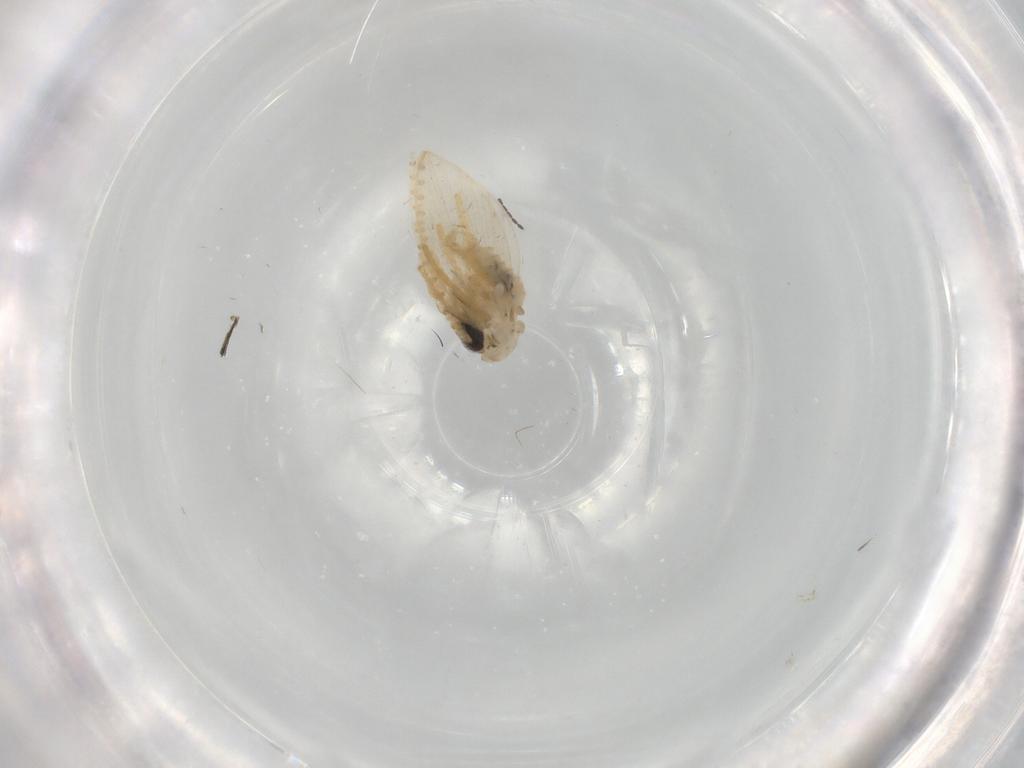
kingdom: Animalia
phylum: Arthropoda
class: Insecta
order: Diptera
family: Psychodidae
